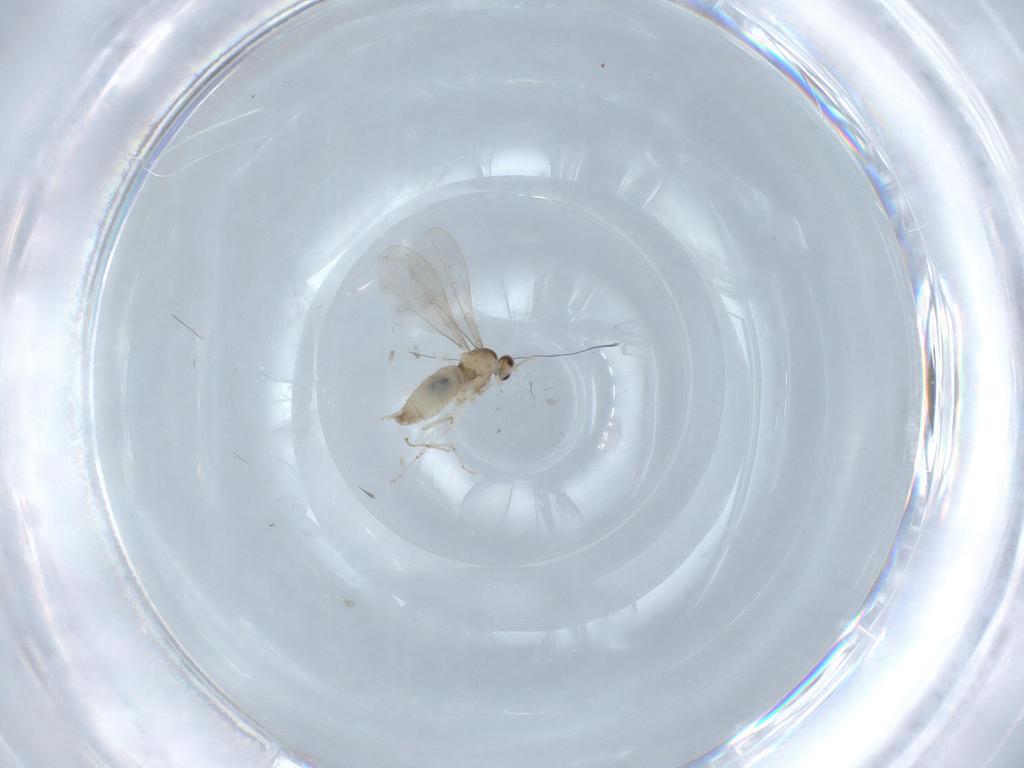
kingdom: Animalia
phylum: Arthropoda
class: Insecta
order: Diptera
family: Cecidomyiidae
